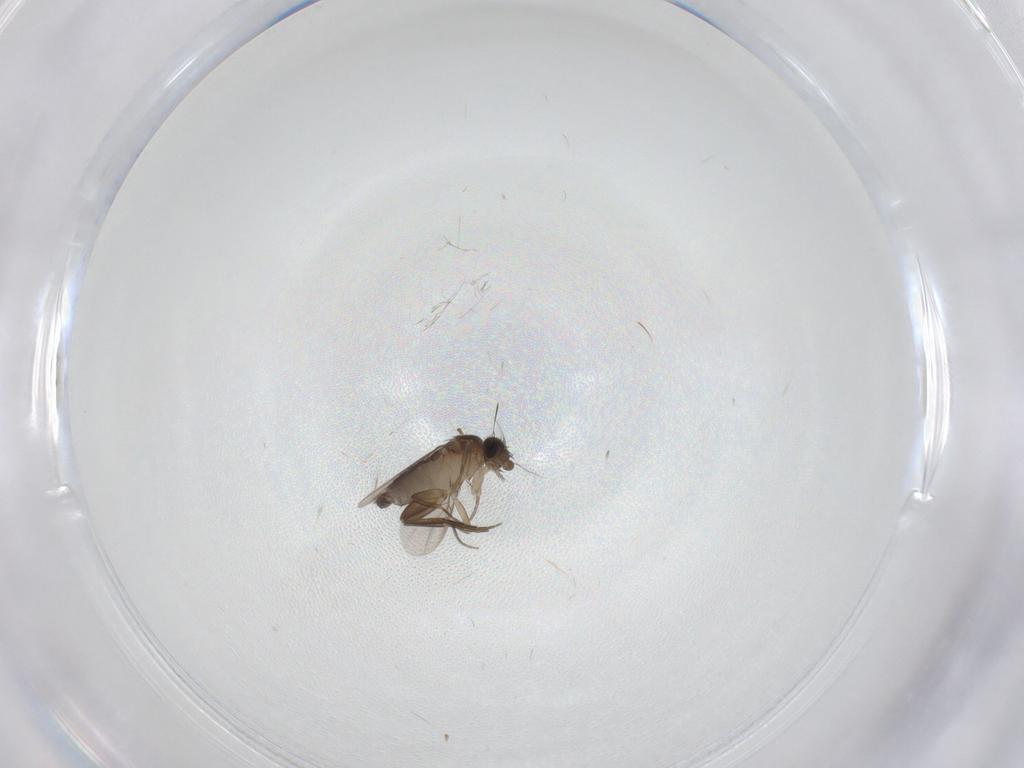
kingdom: Animalia
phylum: Arthropoda
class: Insecta
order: Diptera
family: Phoridae
